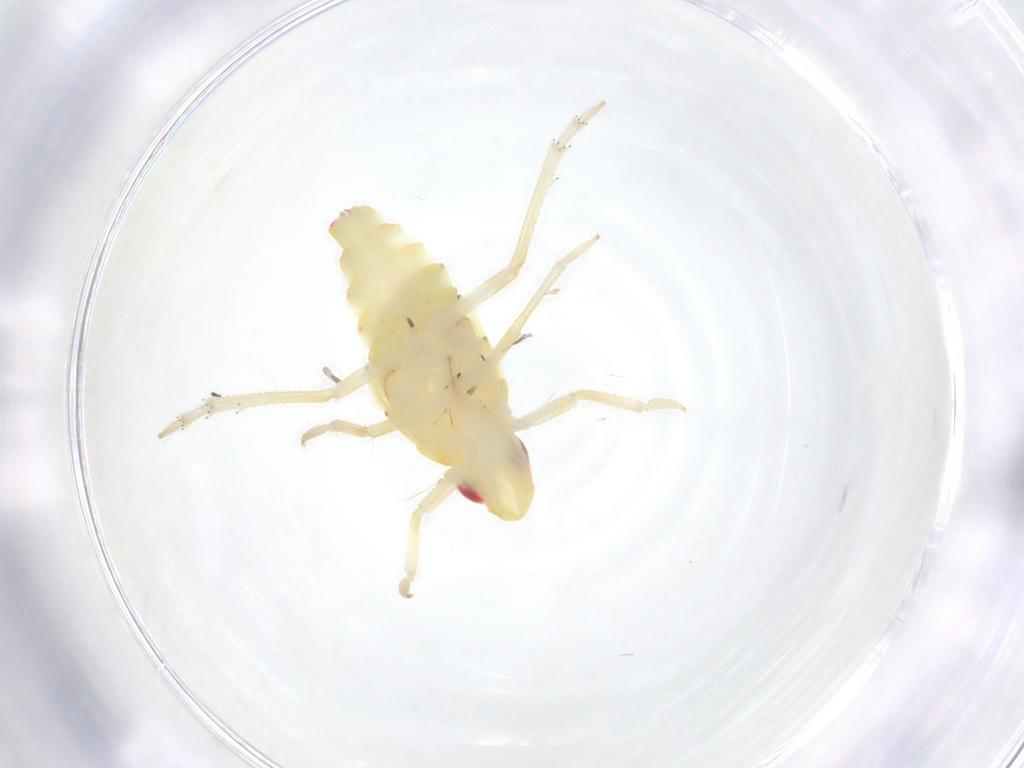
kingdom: Animalia
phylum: Arthropoda
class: Insecta
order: Hemiptera
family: Tropiduchidae
